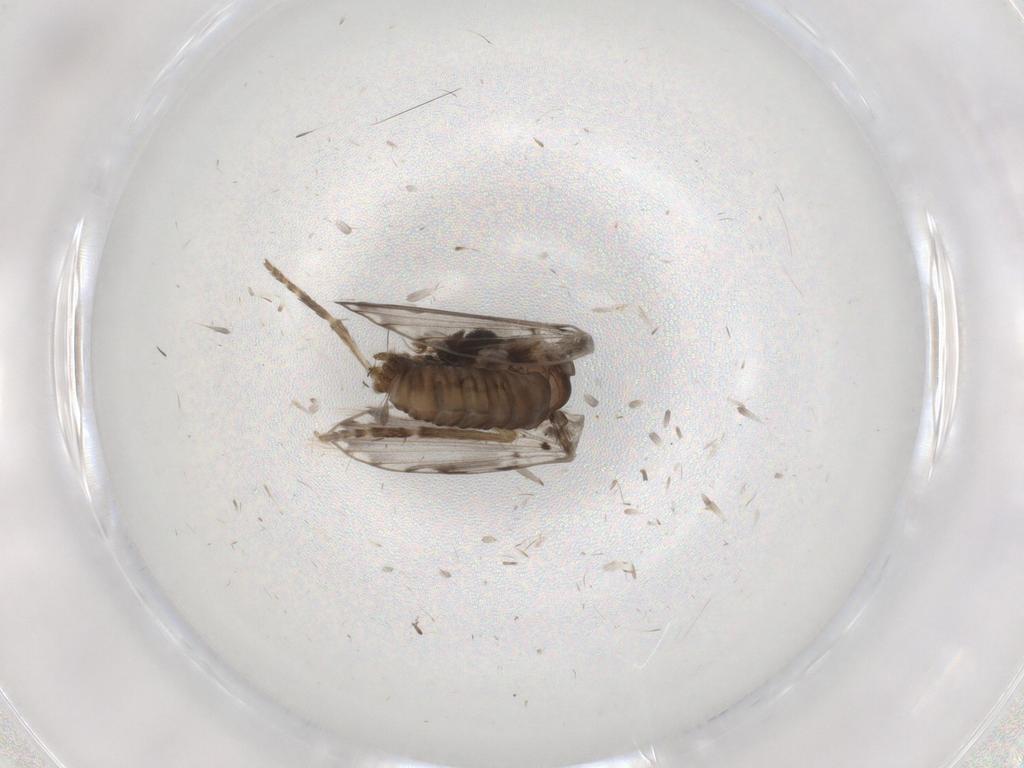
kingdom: Animalia
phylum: Arthropoda
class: Insecta
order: Diptera
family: Psychodidae
